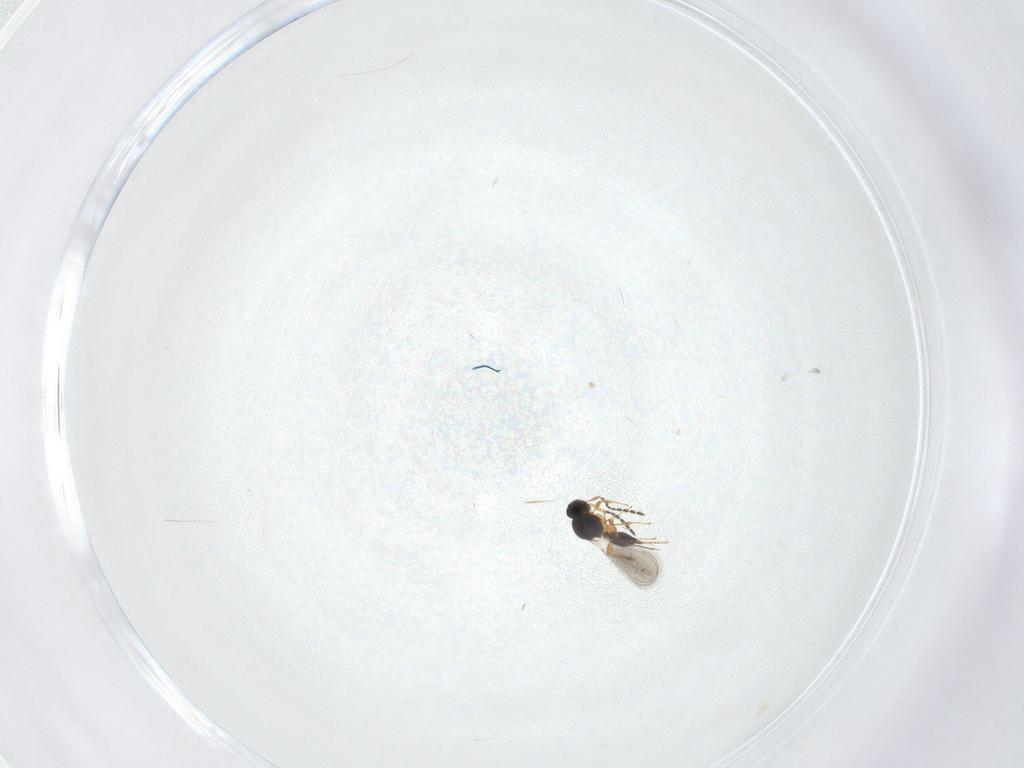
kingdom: Animalia
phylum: Arthropoda
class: Insecta
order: Hymenoptera
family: Platygastridae
